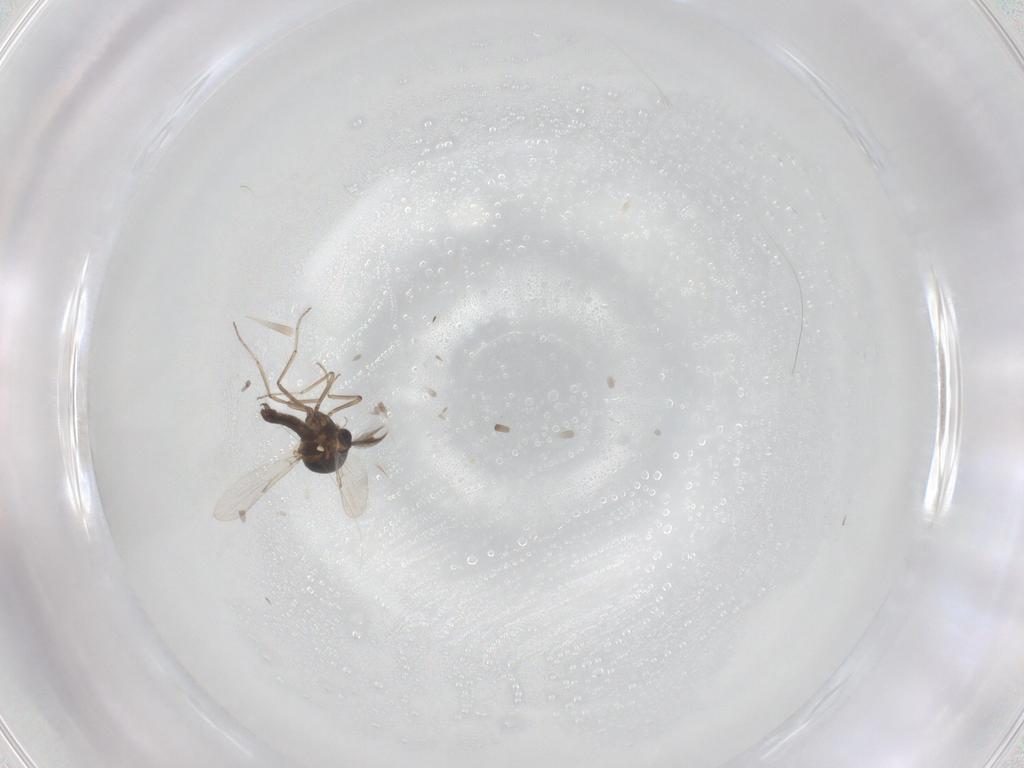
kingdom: Animalia
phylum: Arthropoda
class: Insecta
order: Diptera
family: Ceratopogonidae
